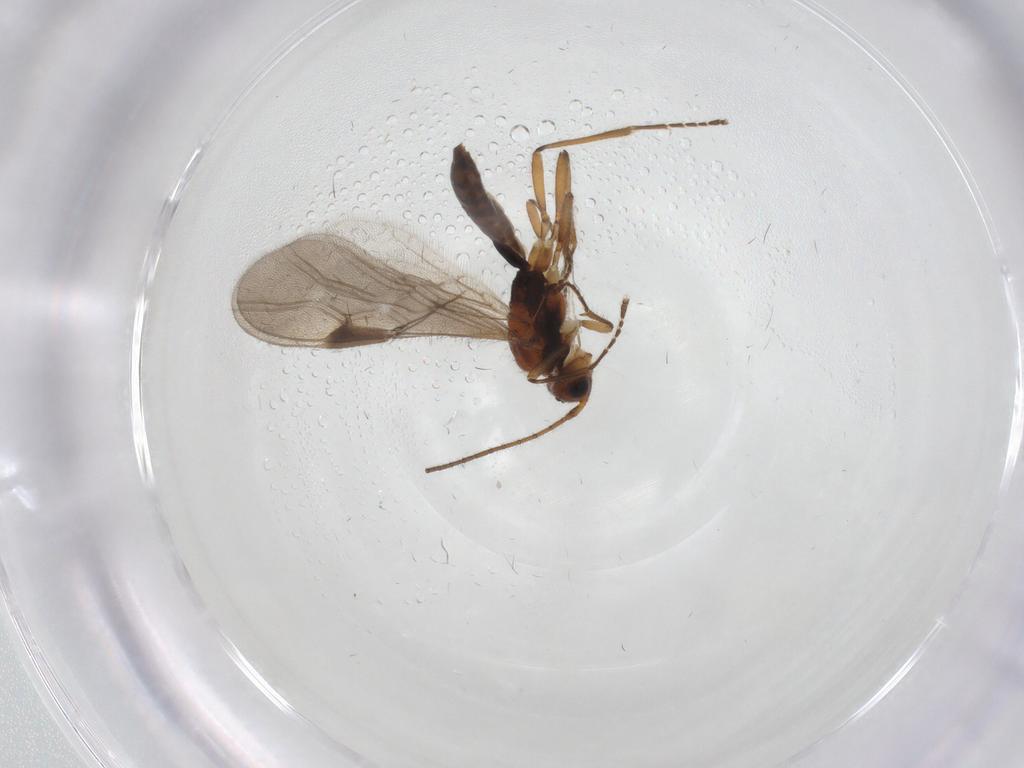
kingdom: Animalia
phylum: Arthropoda
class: Insecta
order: Hymenoptera
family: Braconidae
